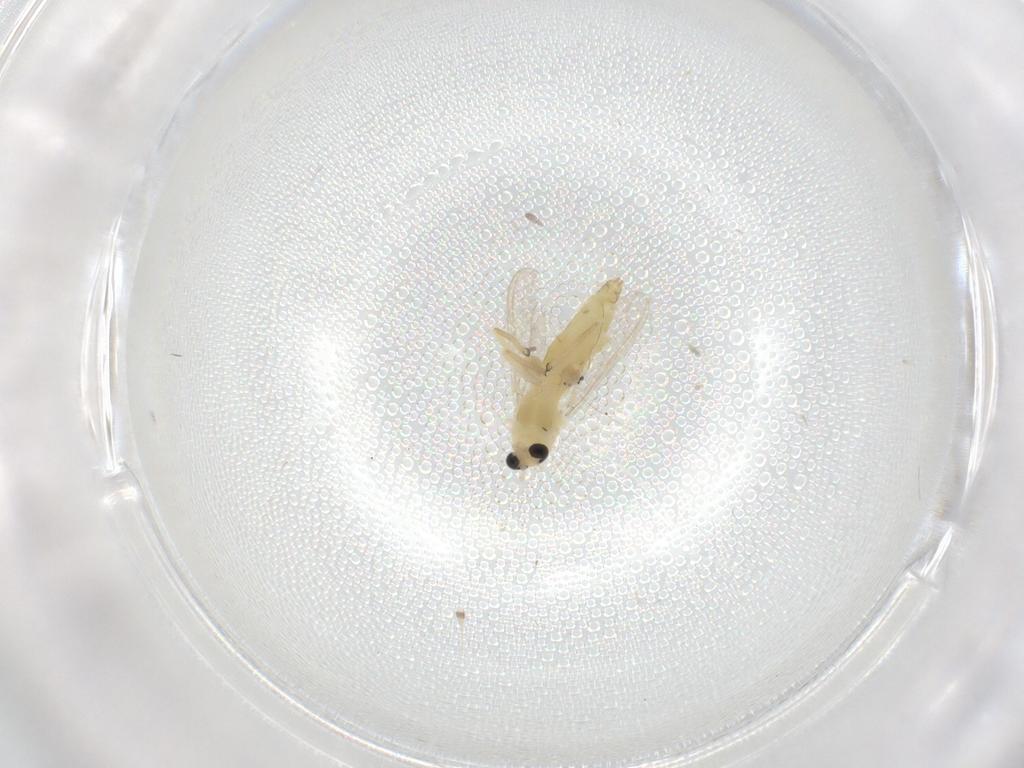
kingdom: Animalia
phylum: Arthropoda
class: Insecta
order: Diptera
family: Chironomidae
